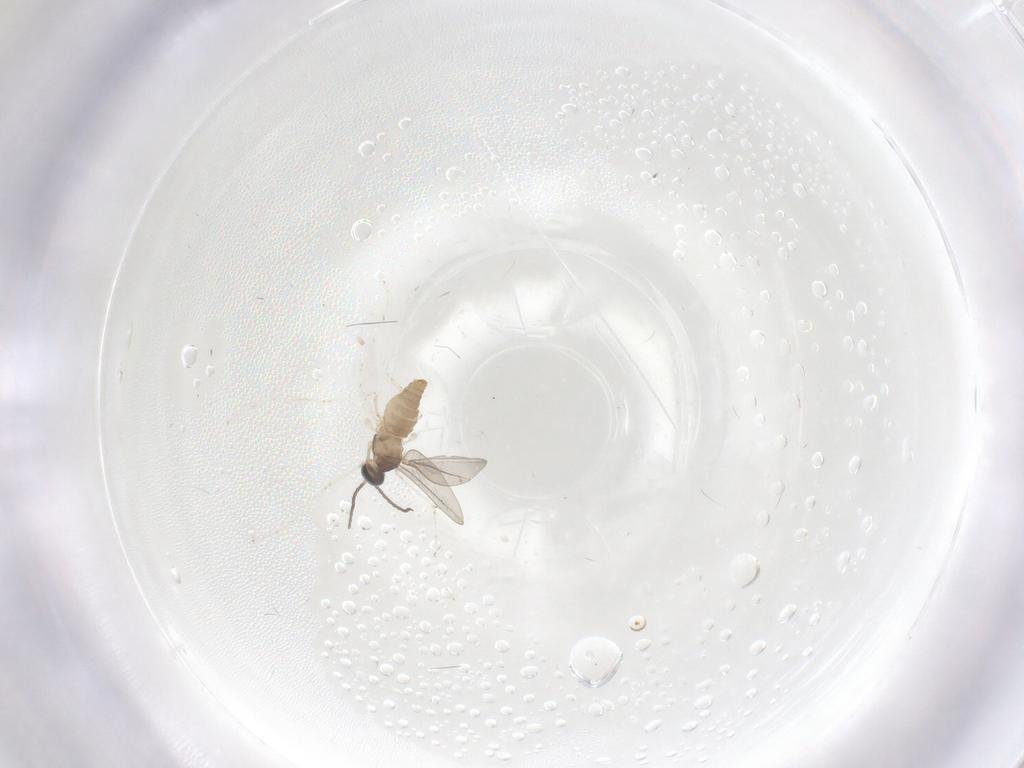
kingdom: Animalia
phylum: Arthropoda
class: Insecta
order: Diptera
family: Cecidomyiidae
